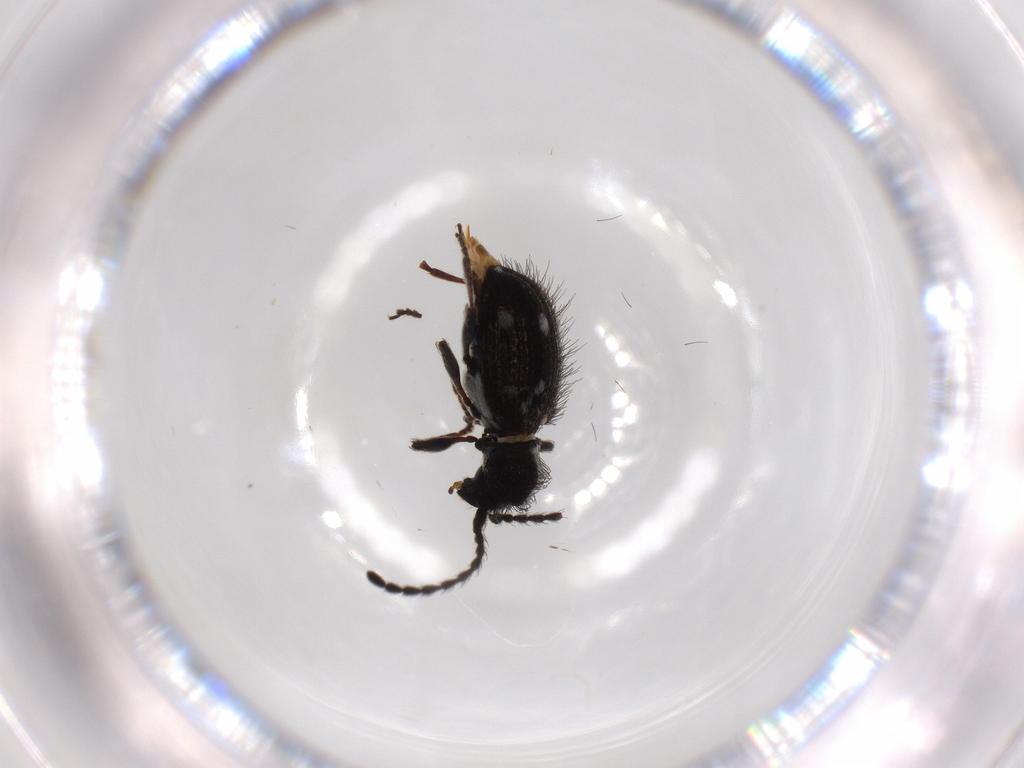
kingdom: Animalia
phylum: Arthropoda
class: Insecta
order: Coleoptera
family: Ptinidae
